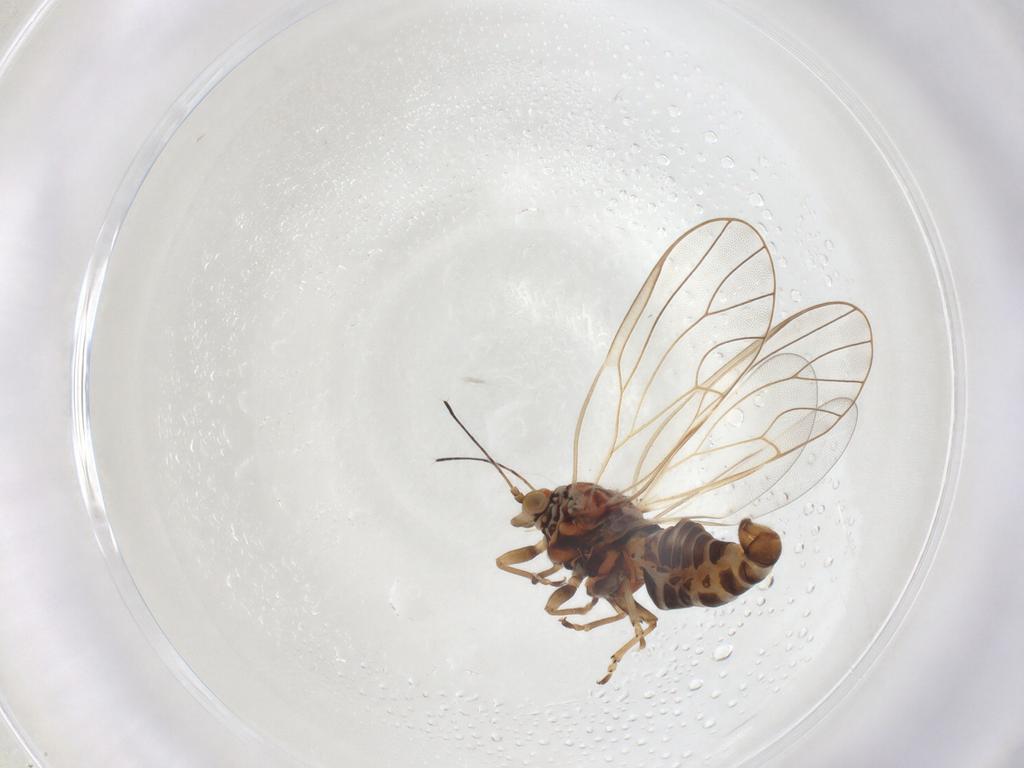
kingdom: Animalia
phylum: Arthropoda
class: Insecta
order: Hemiptera
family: Psyllidae
